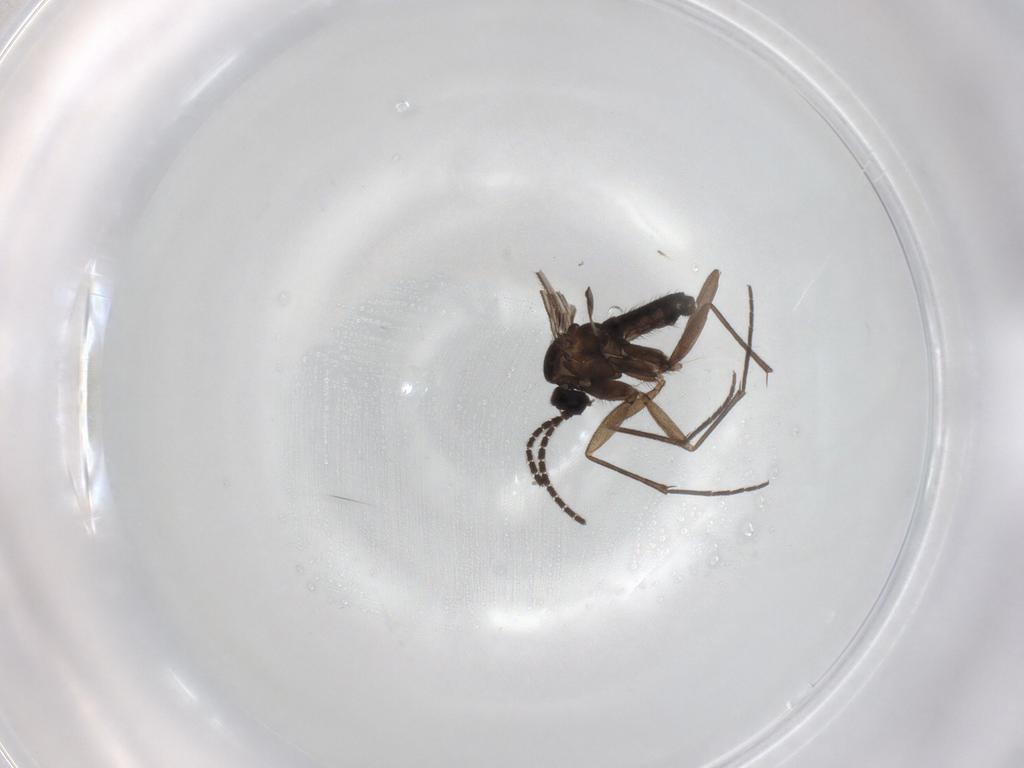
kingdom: Animalia
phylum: Arthropoda
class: Insecta
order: Diptera
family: Sciaridae
